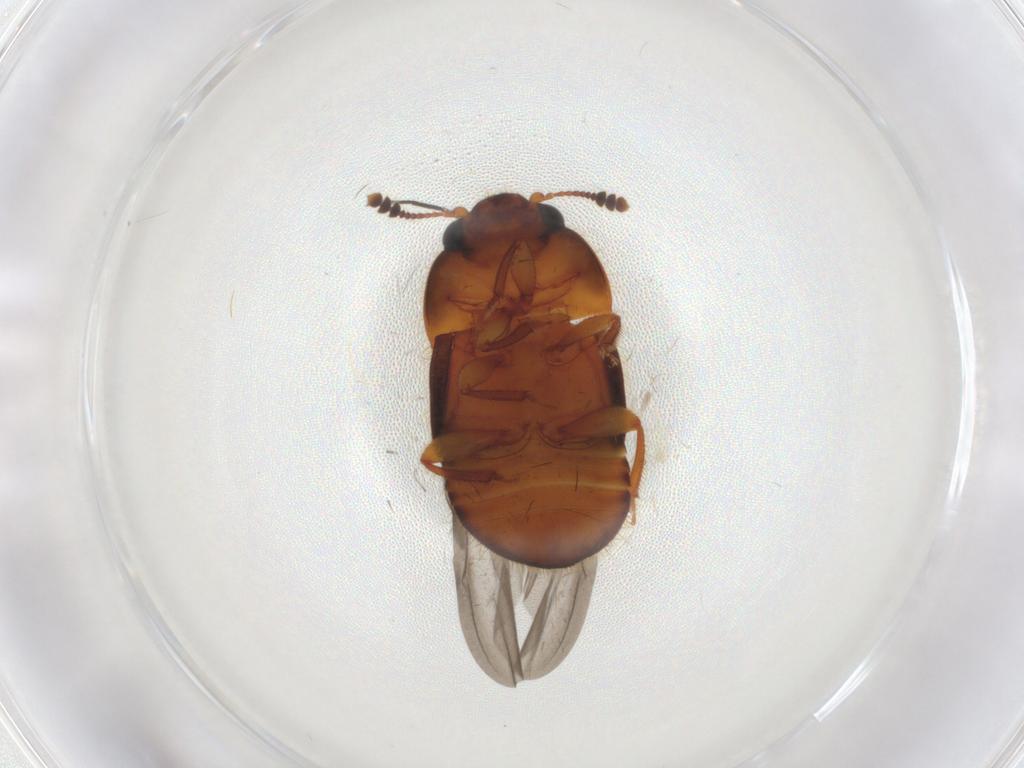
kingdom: Animalia
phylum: Arthropoda
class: Insecta
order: Coleoptera
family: Nitidulidae
